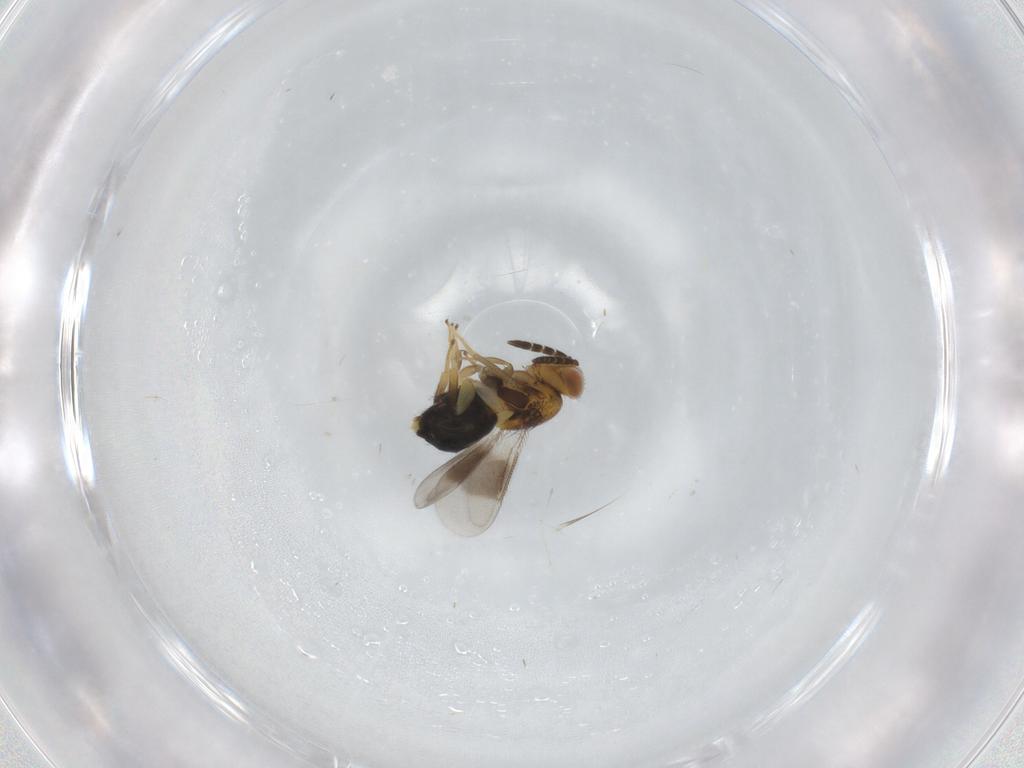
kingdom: Animalia
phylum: Arthropoda
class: Insecta
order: Hymenoptera
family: Aphelinidae
